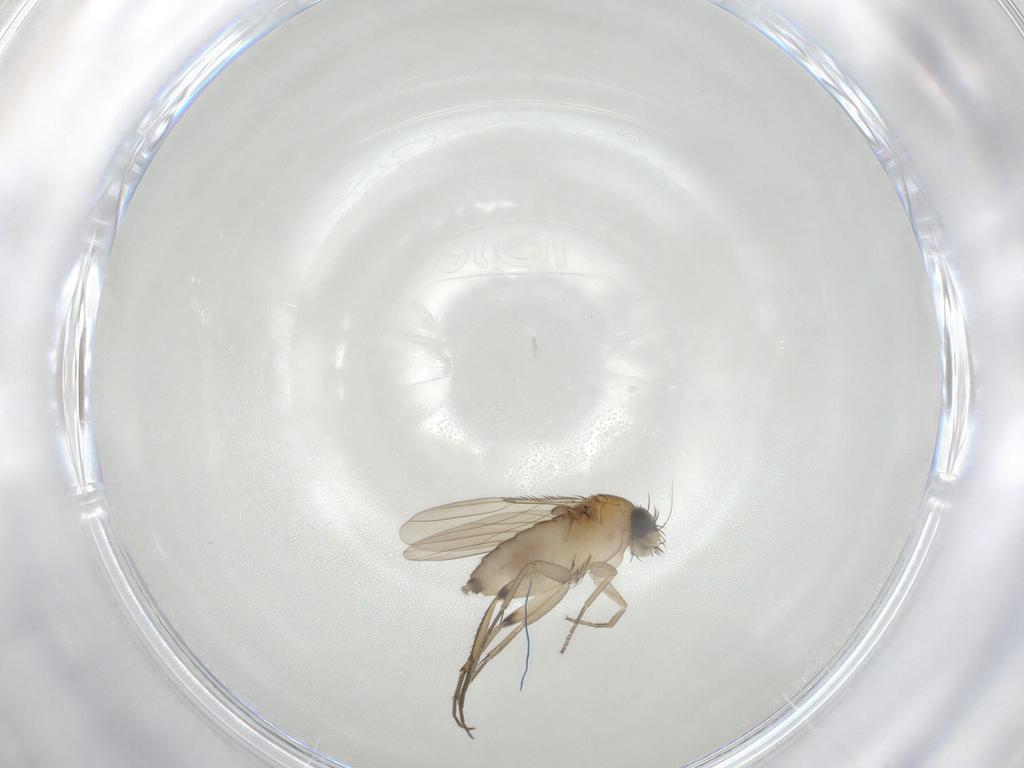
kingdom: Animalia
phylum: Arthropoda
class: Insecta
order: Diptera
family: Phoridae
